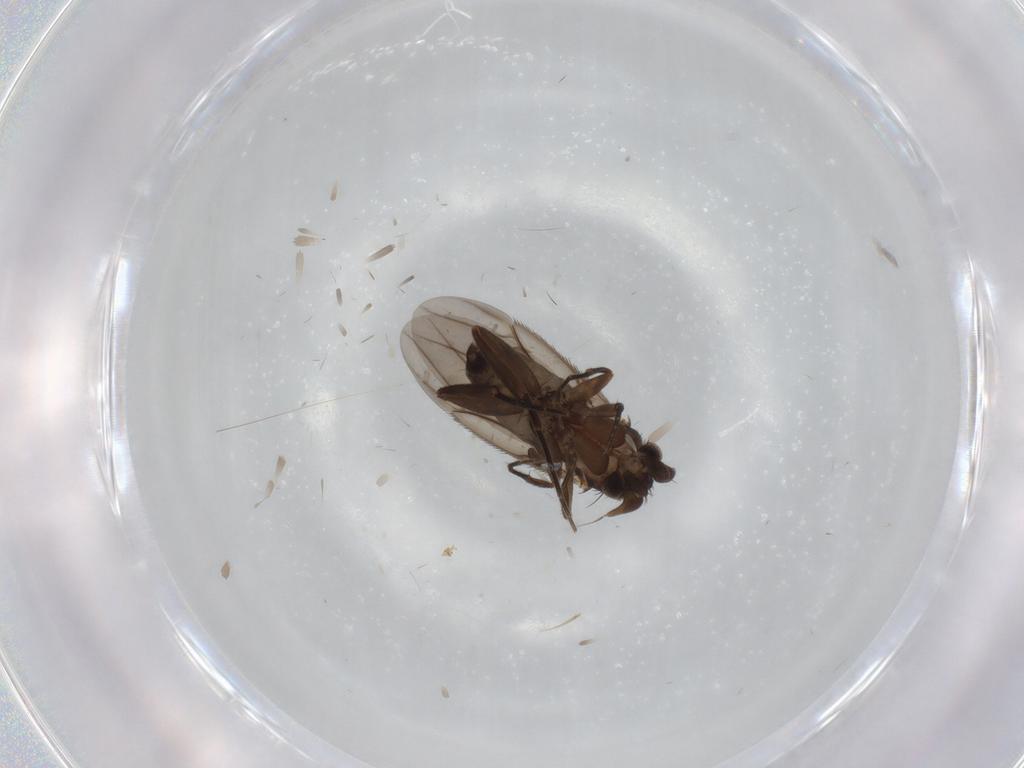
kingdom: Animalia
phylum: Arthropoda
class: Insecta
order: Diptera
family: Phoridae
